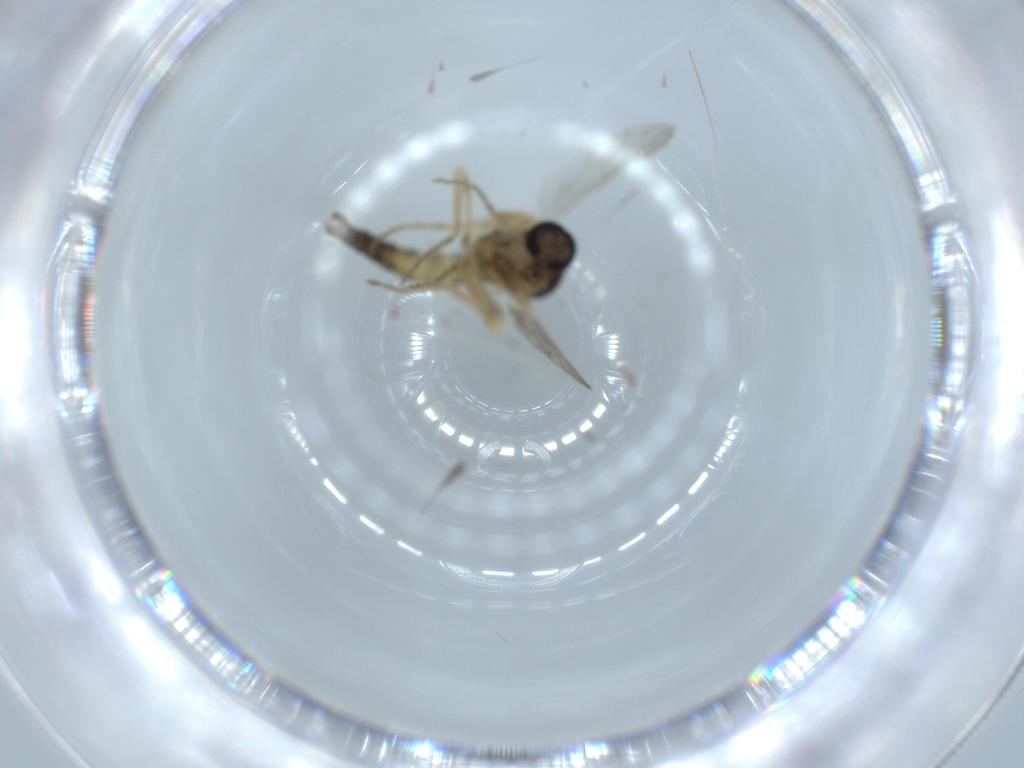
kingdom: Animalia
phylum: Arthropoda
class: Insecta
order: Diptera
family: Ceratopogonidae
